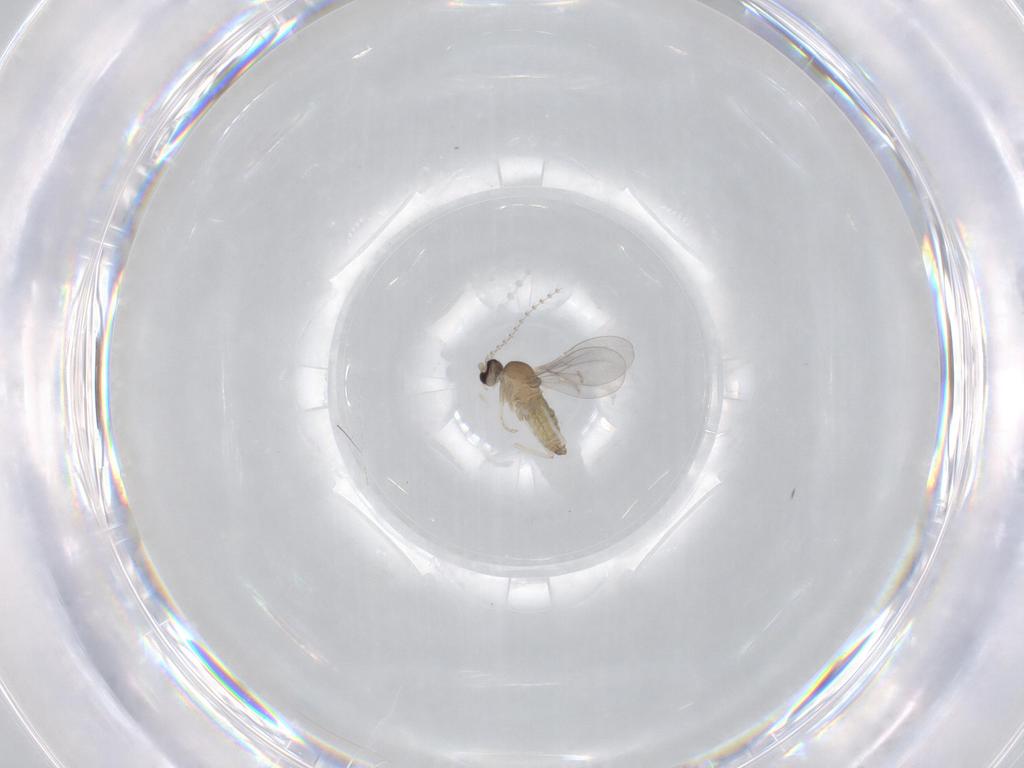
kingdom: Animalia
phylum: Arthropoda
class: Insecta
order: Diptera
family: Cecidomyiidae
